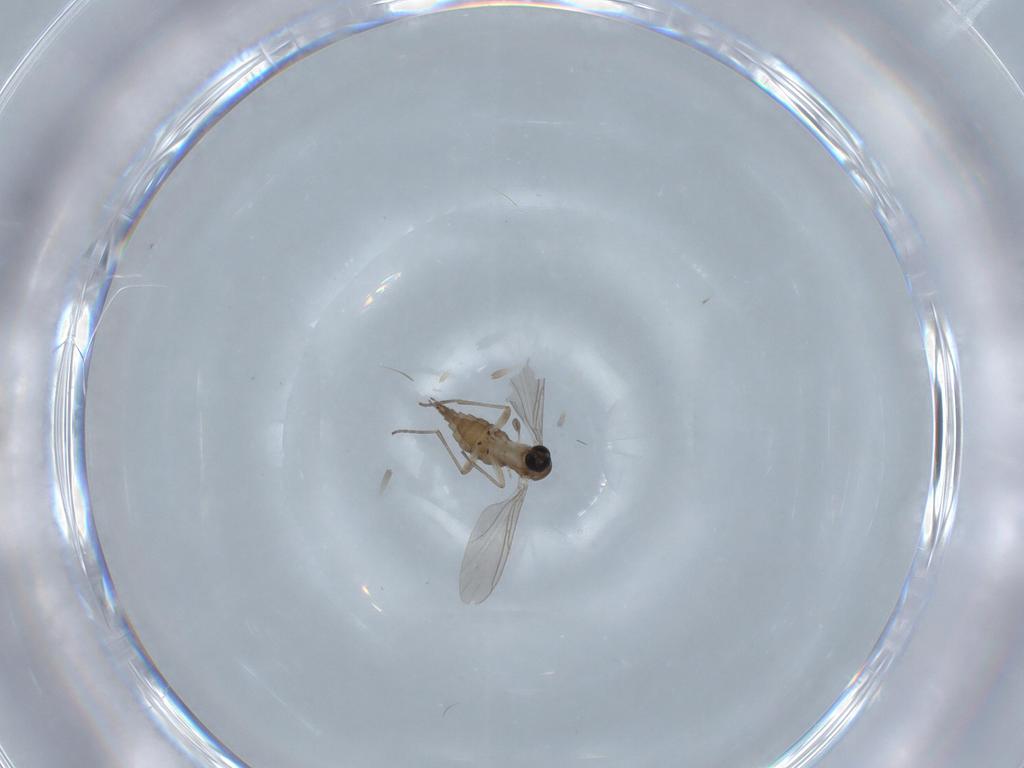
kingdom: Animalia
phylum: Arthropoda
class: Insecta
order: Diptera
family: Sciaridae
